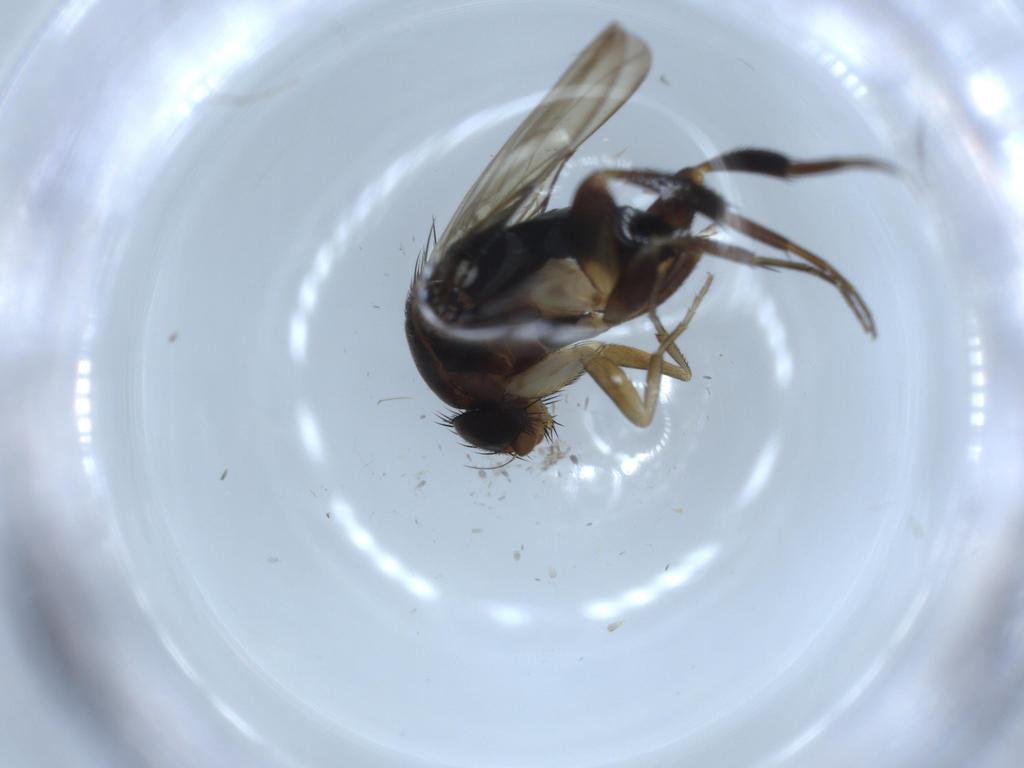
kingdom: Animalia
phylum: Arthropoda
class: Insecta
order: Diptera
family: Phoridae
